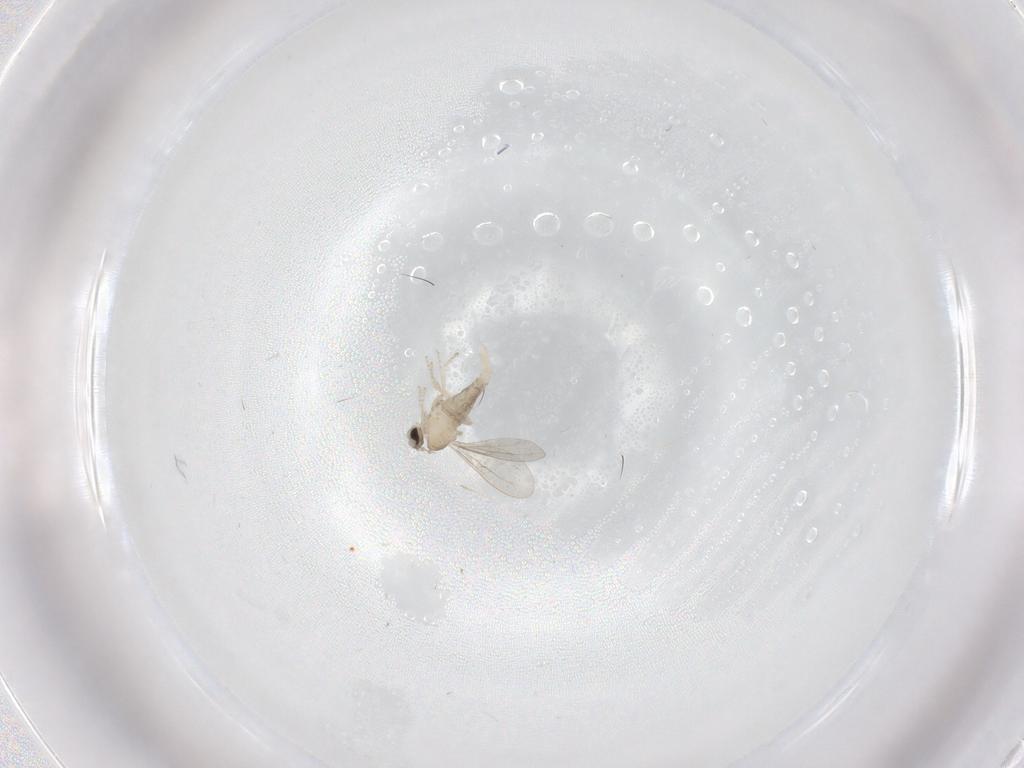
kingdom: Animalia
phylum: Arthropoda
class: Insecta
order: Diptera
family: Cecidomyiidae
